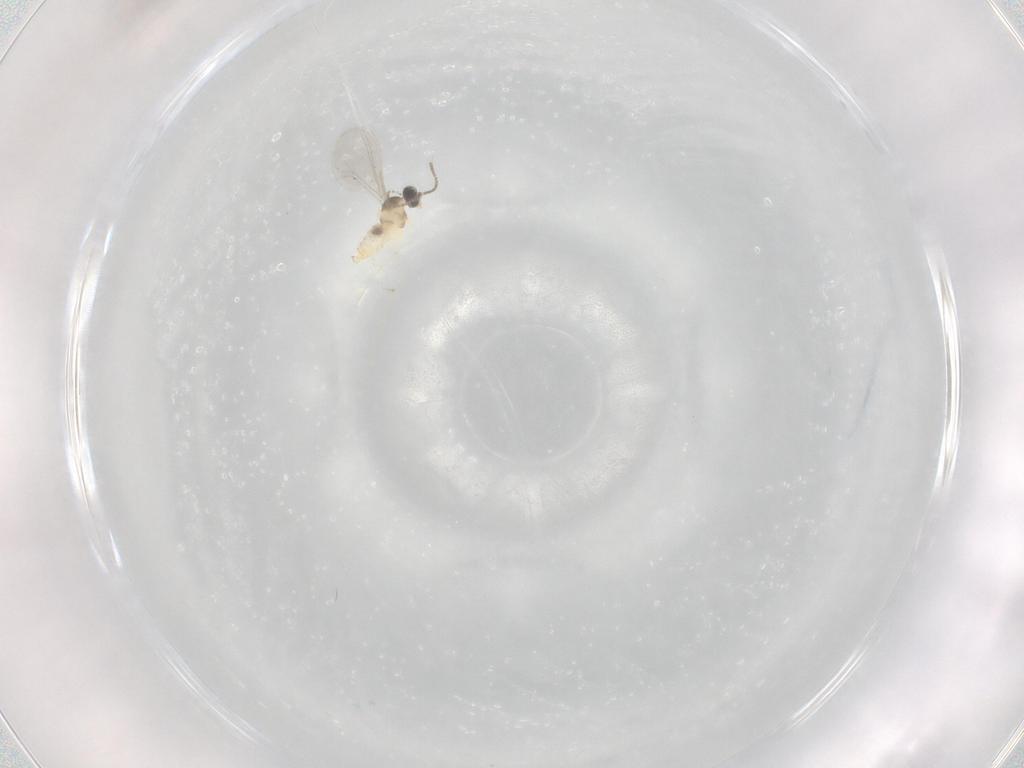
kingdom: Animalia
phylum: Arthropoda
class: Insecta
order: Diptera
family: Cecidomyiidae
